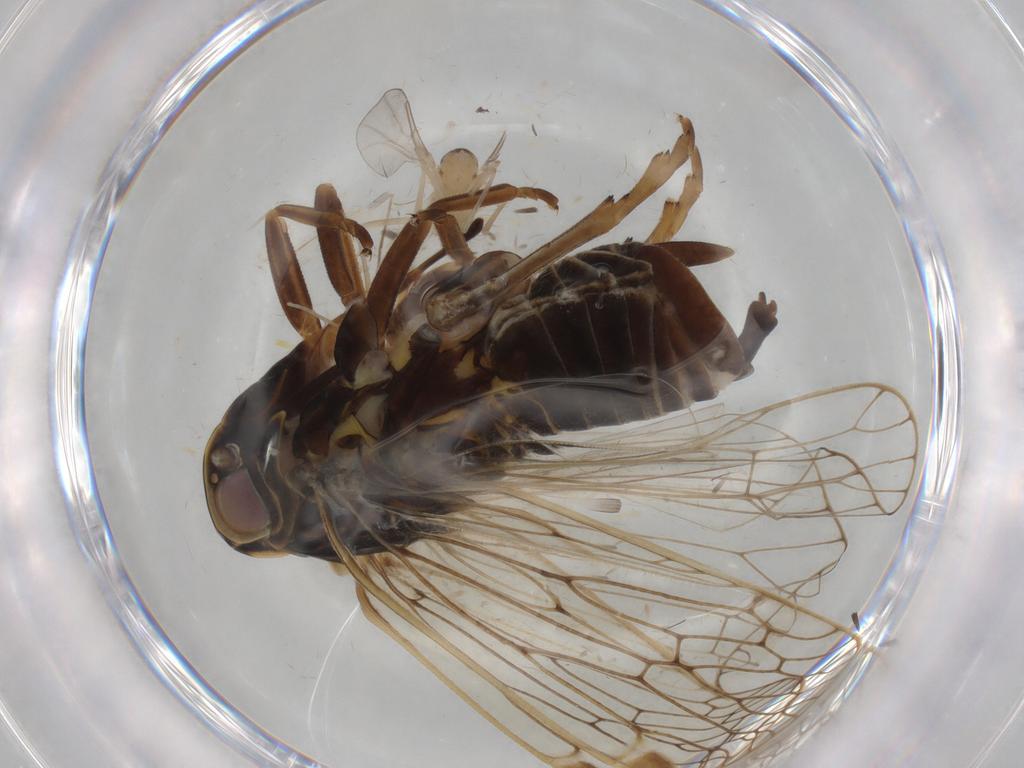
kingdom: Animalia
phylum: Arthropoda
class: Insecta
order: Diptera
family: Cecidomyiidae
